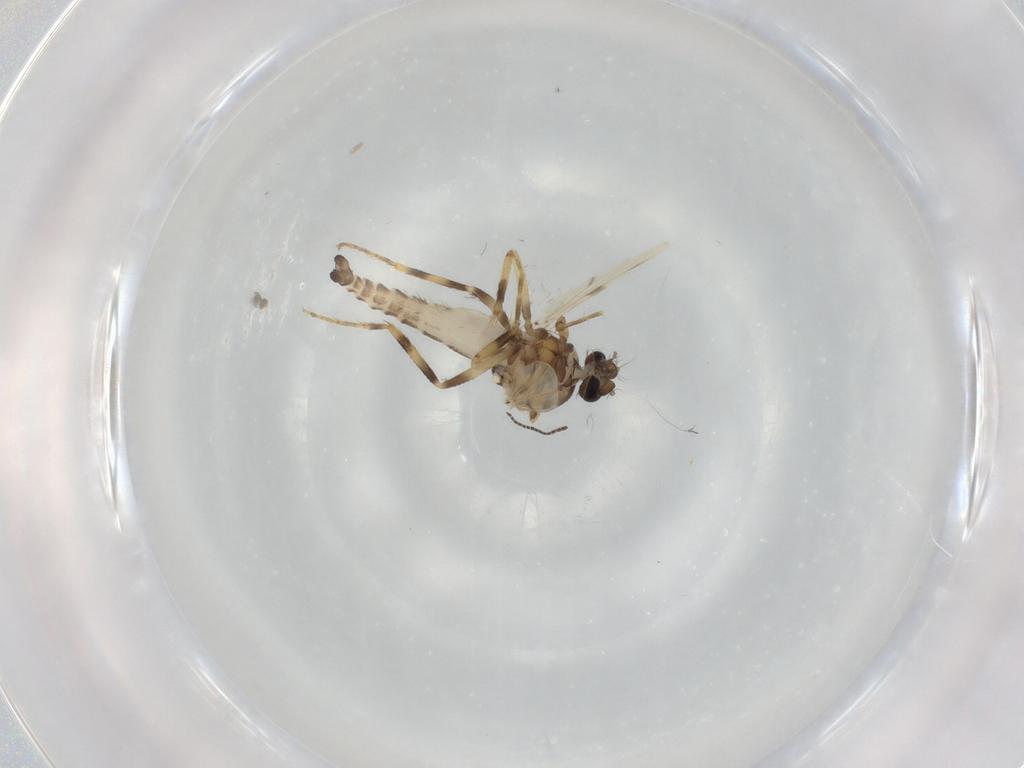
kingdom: Animalia
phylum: Arthropoda
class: Insecta
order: Diptera
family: Ceratopogonidae
